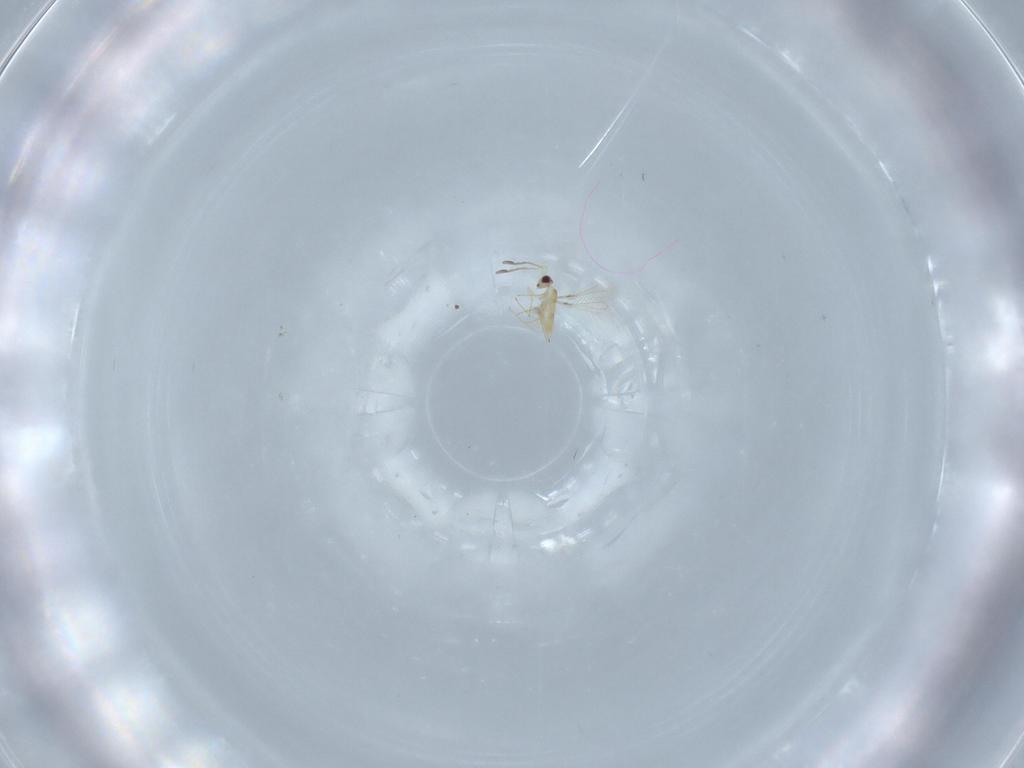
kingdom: Animalia
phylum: Arthropoda
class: Insecta
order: Hymenoptera
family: Mymaridae
